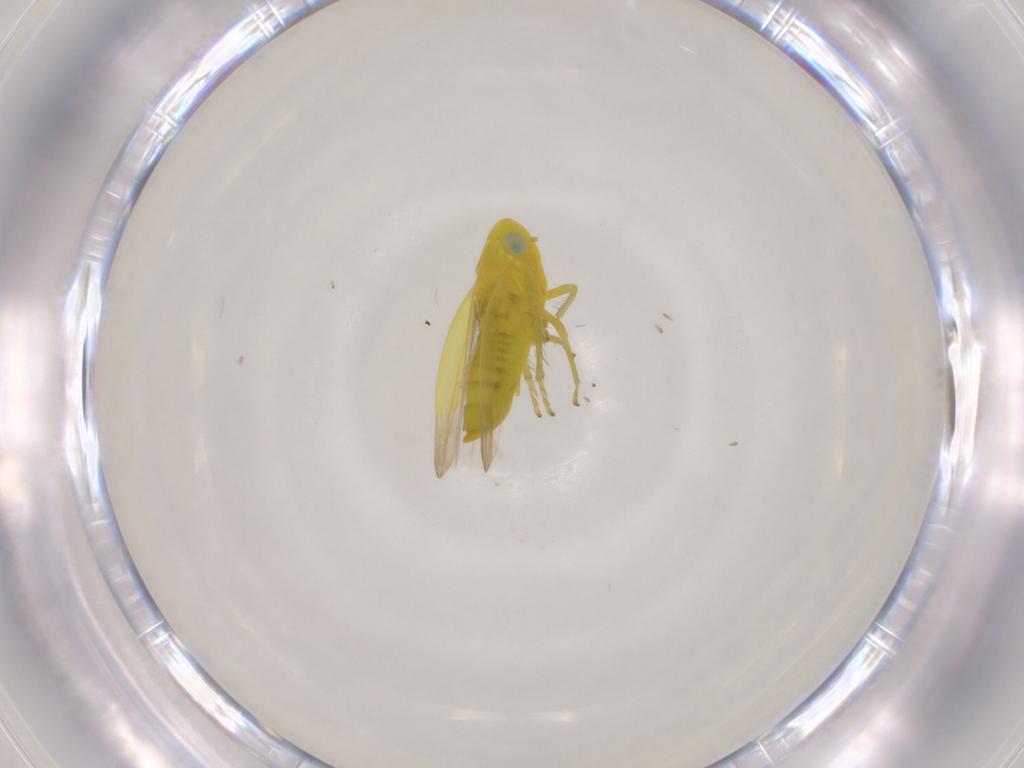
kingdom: Animalia
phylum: Arthropoda
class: Insecta
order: Hemiptera
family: Cicadellidae
